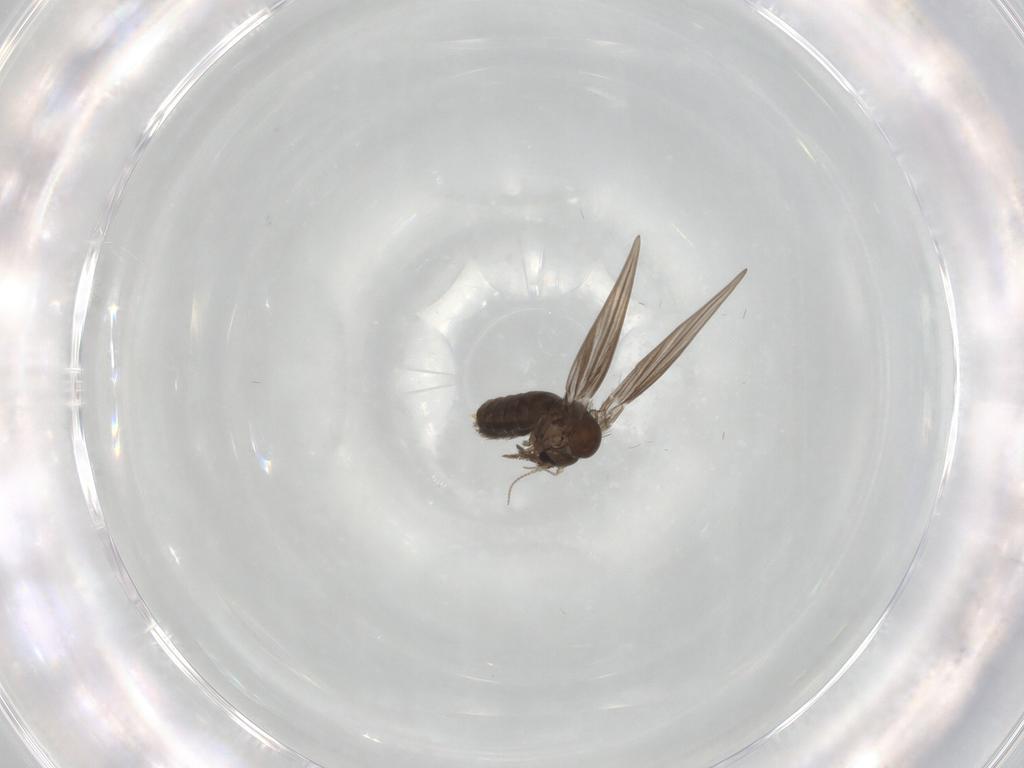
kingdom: Animalia
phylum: Arthropoda
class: Insecta
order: Diptera
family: Psychodidae
